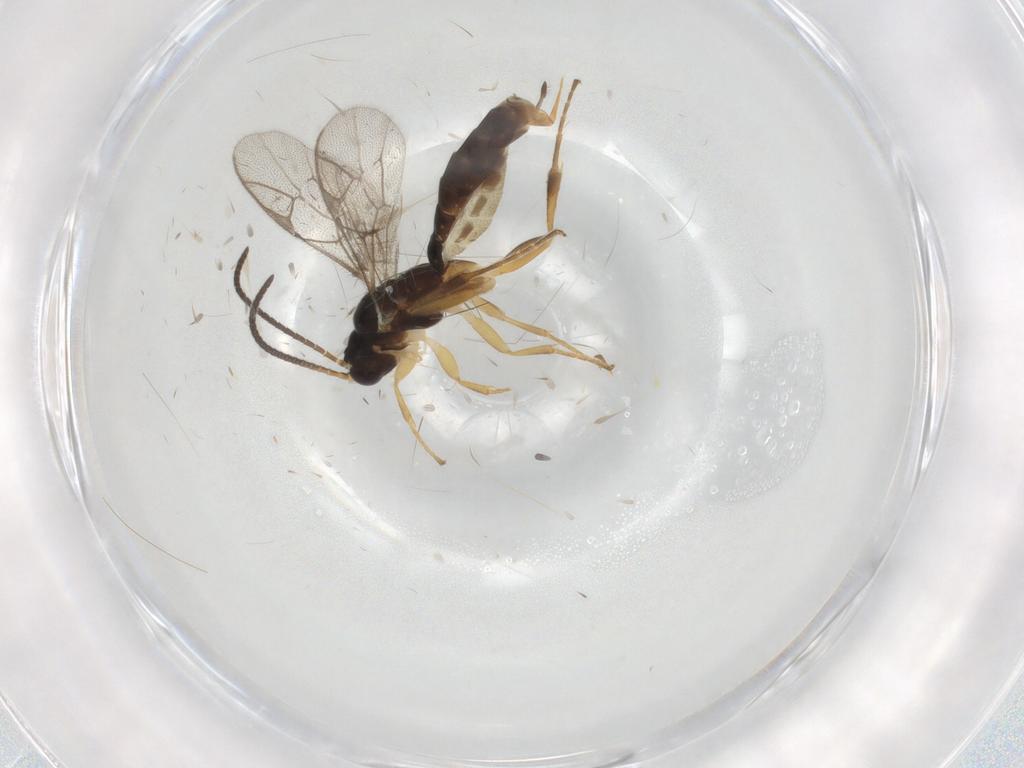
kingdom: Animalia
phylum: Arthropoda
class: Insecta
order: Hymenoptera
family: Ichneumonidae
